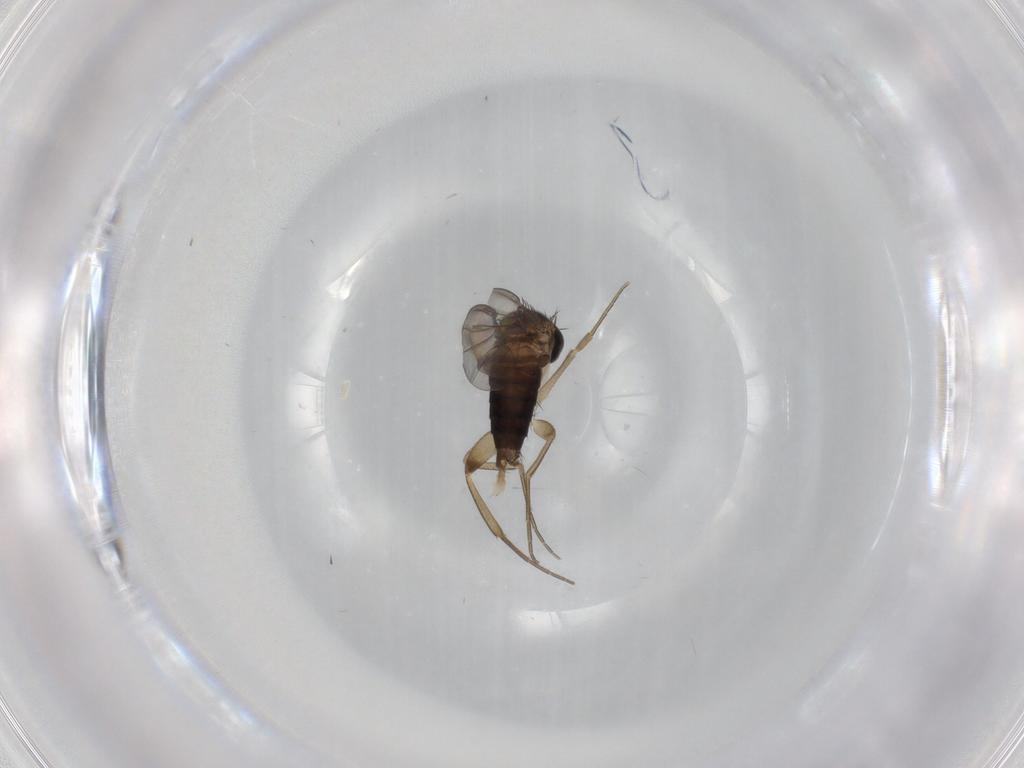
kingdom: Animalia
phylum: Arthropoda
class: Insecta
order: Diptera
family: Phoridae
